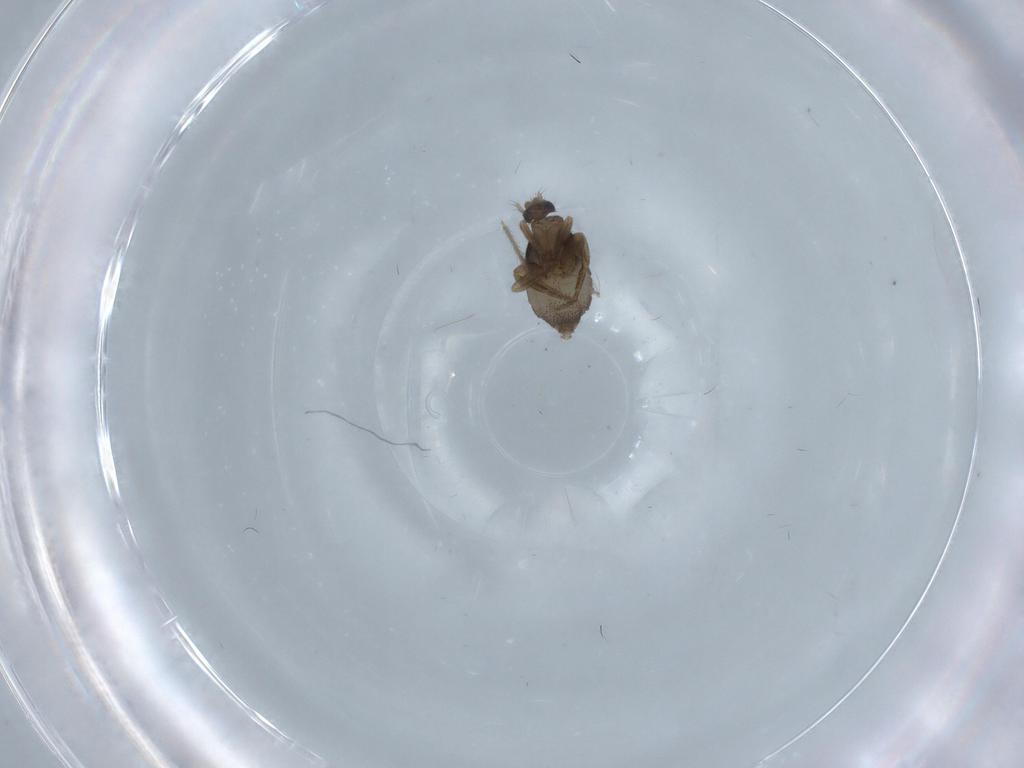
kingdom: Animalia
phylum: Arthropoda
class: Insecta
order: Diptera
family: Phoridae
